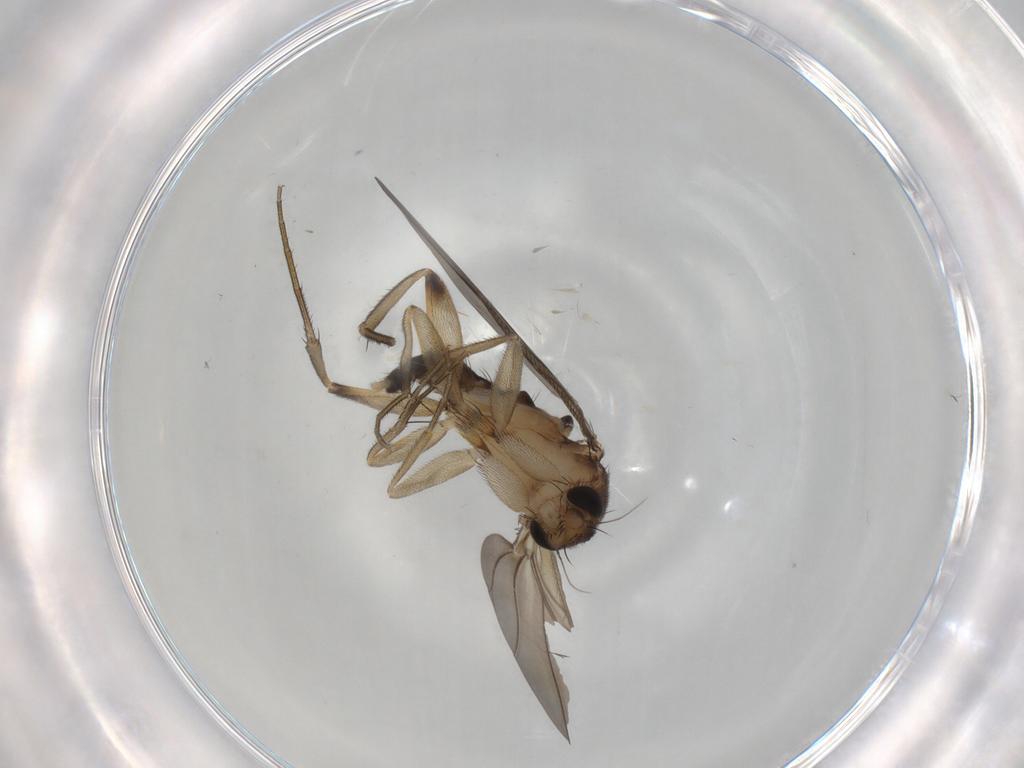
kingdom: Animalia
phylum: Arthropoda
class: Insecta
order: Diptera
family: Phoridae
